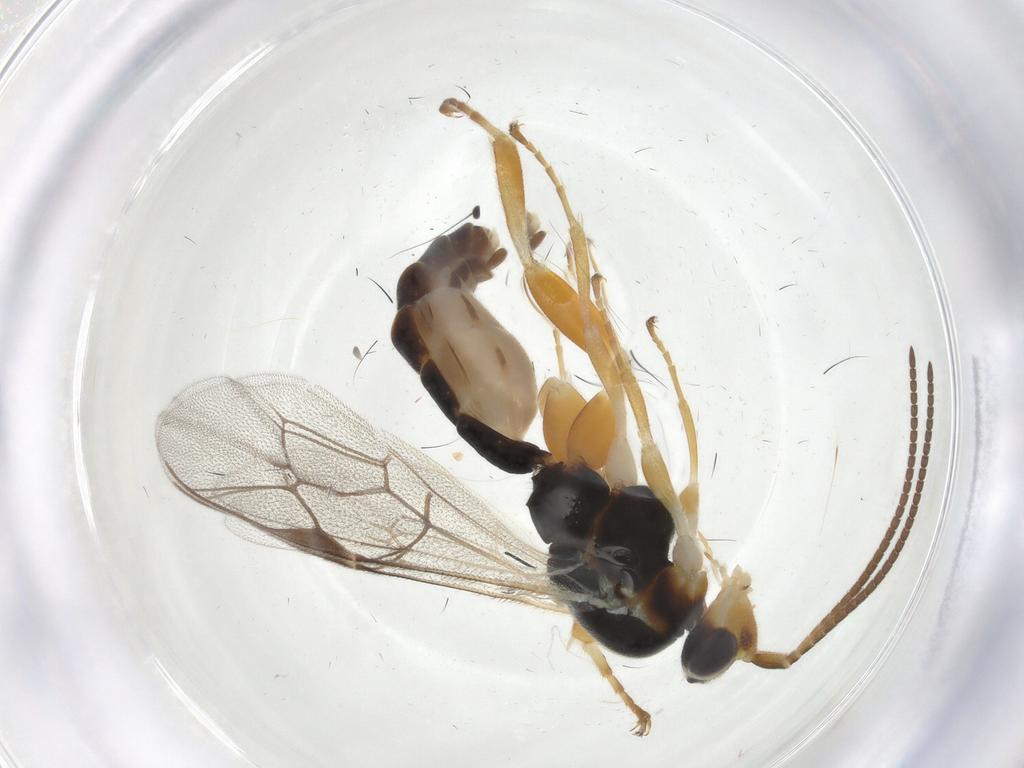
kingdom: Animalia
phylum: Arthropoda
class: Insecta
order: Hymenoptera
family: Ichneumonidae
